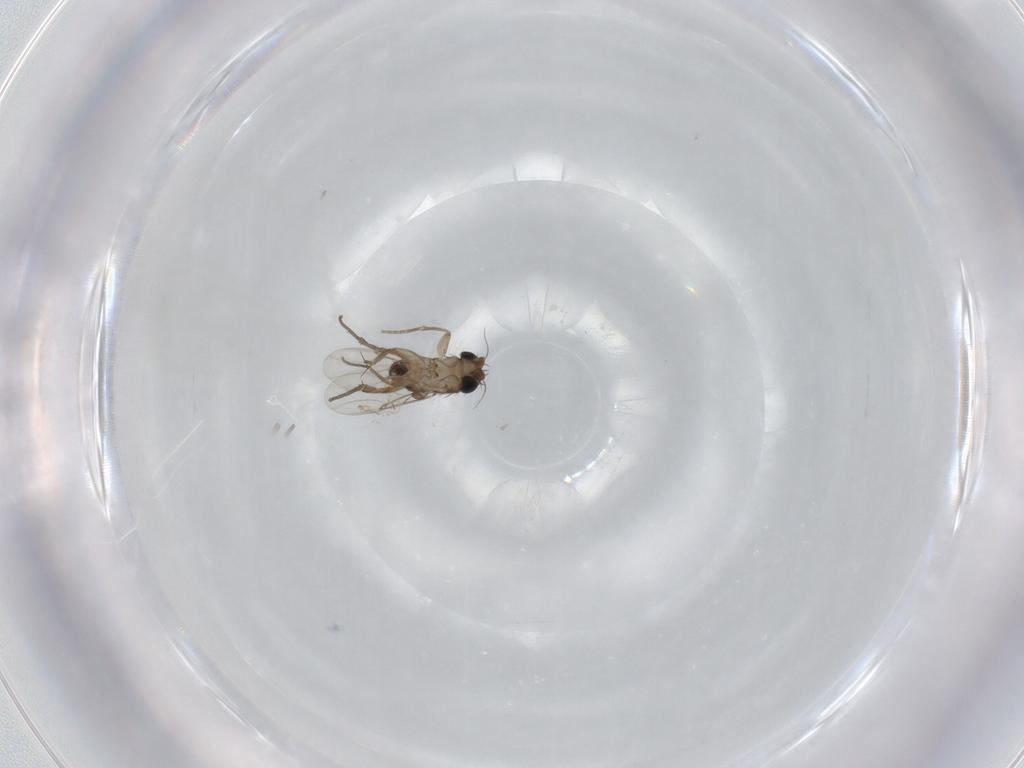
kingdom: Animalia
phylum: Arthropoda
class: Insecta
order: Diptera
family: Phoridae
